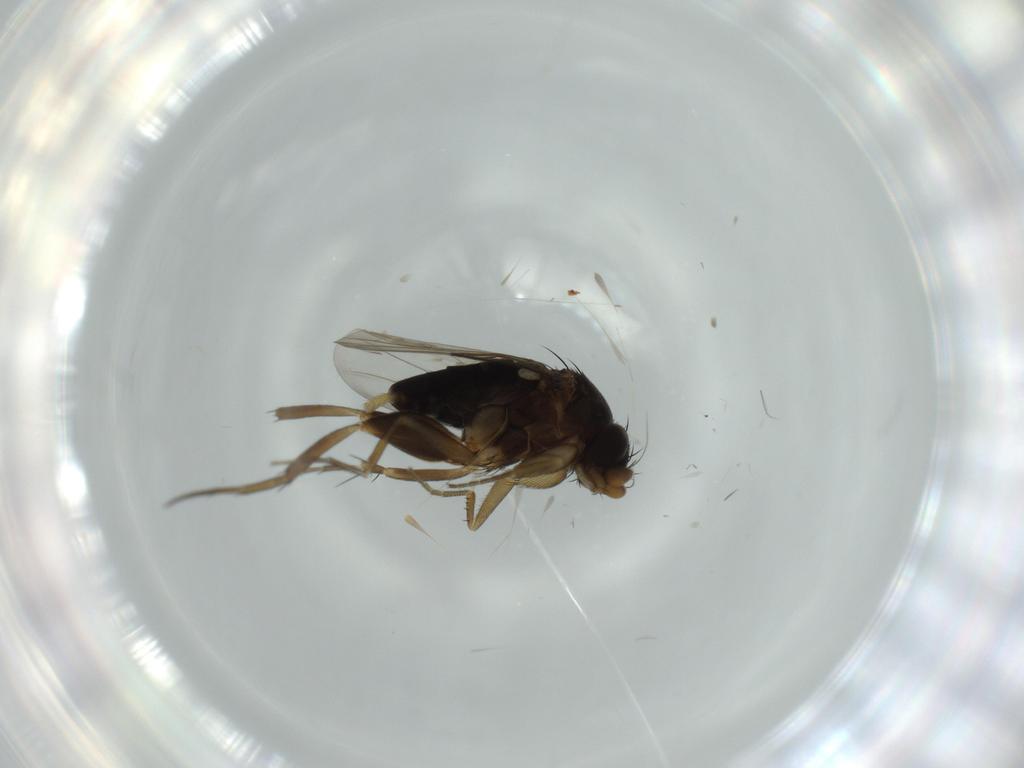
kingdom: Animalia
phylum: Arthropoda
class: Insecta
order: Diptera
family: Phoridae
